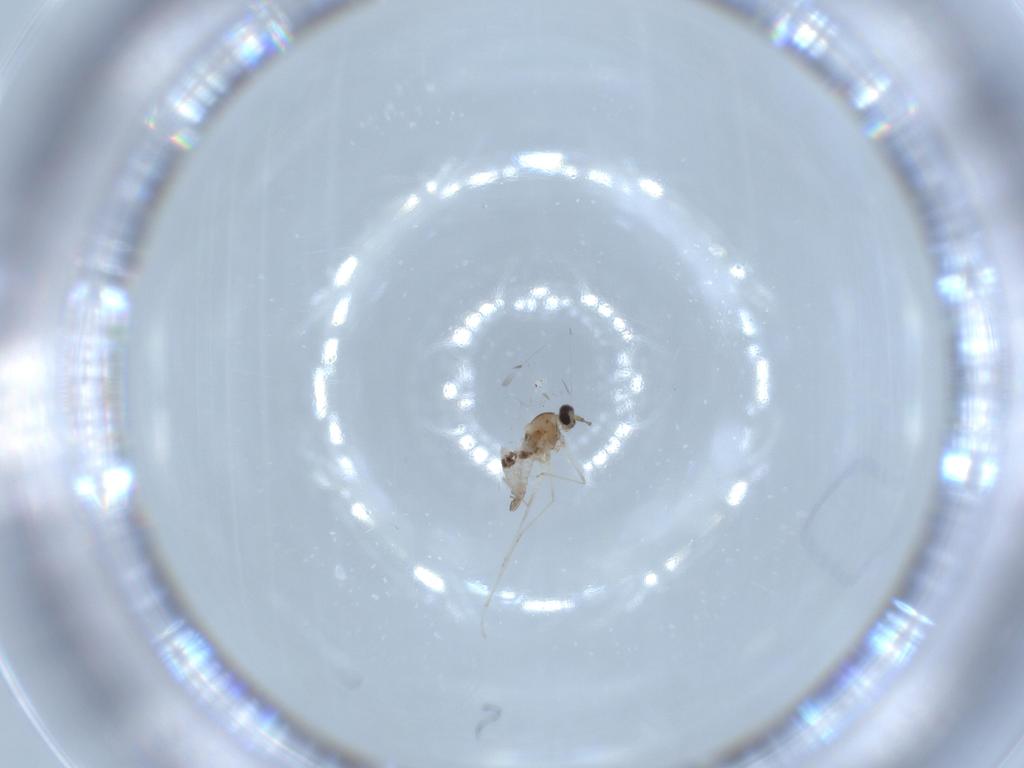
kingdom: Animalia
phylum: Arthropoda
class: Insecta
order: Diptera
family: Cecidomyiidae
